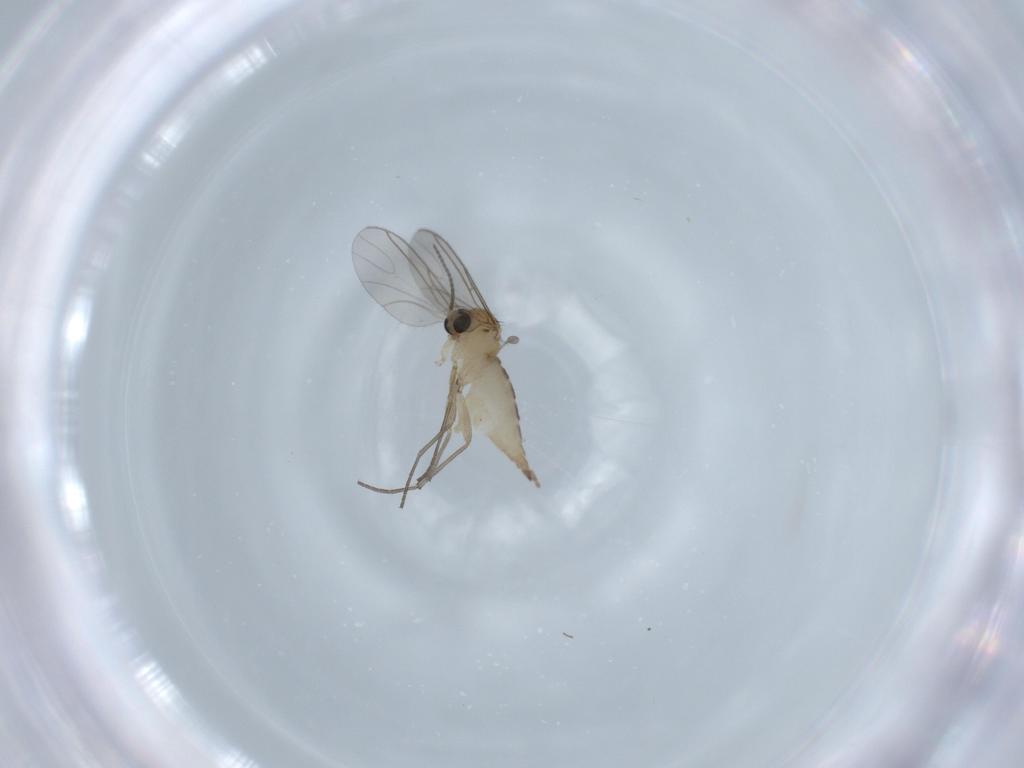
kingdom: Animalia
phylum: Arthropoda
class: Insecta
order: Diptera
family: Sciaridae
